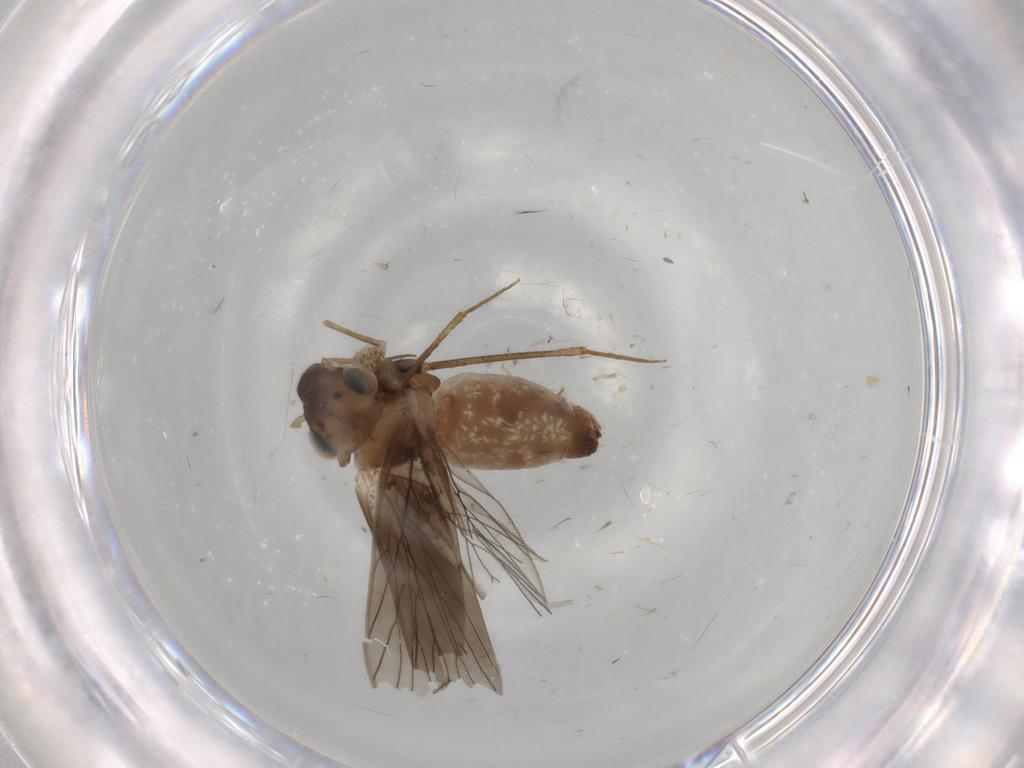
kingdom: Animalia
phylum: Arthropoda
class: Insecta
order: Psocodea
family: Lepidopsocidae
